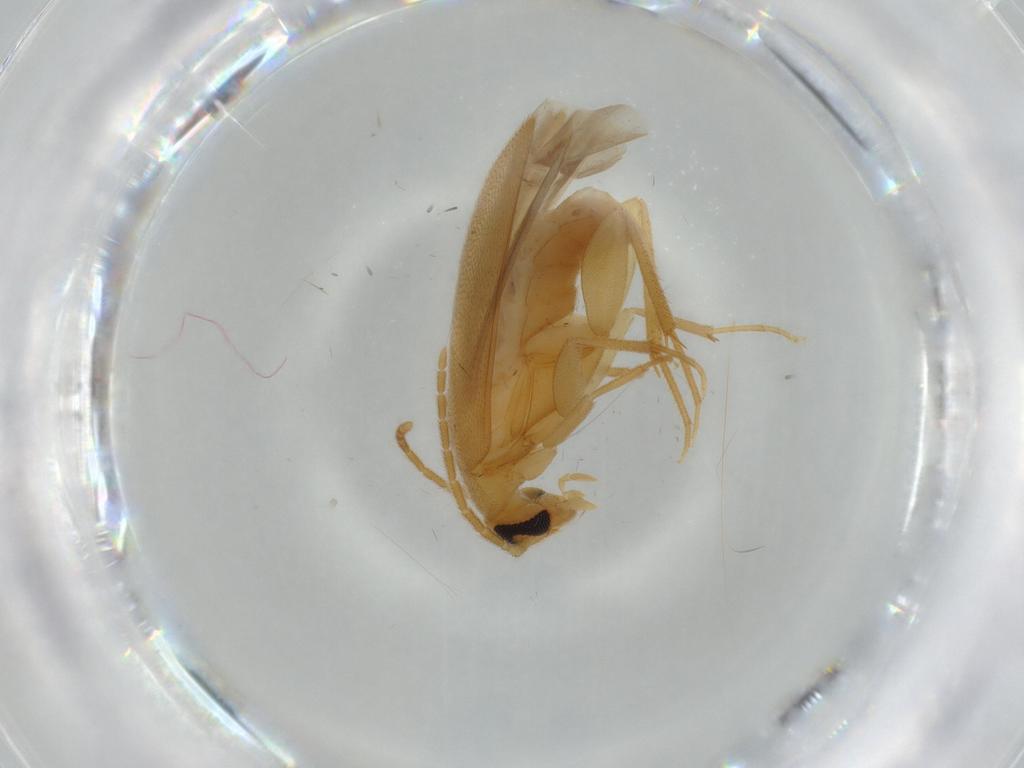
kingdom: Animalia
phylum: Arthropoda
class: Insecta
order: Coleoptera
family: Scraptiidae
